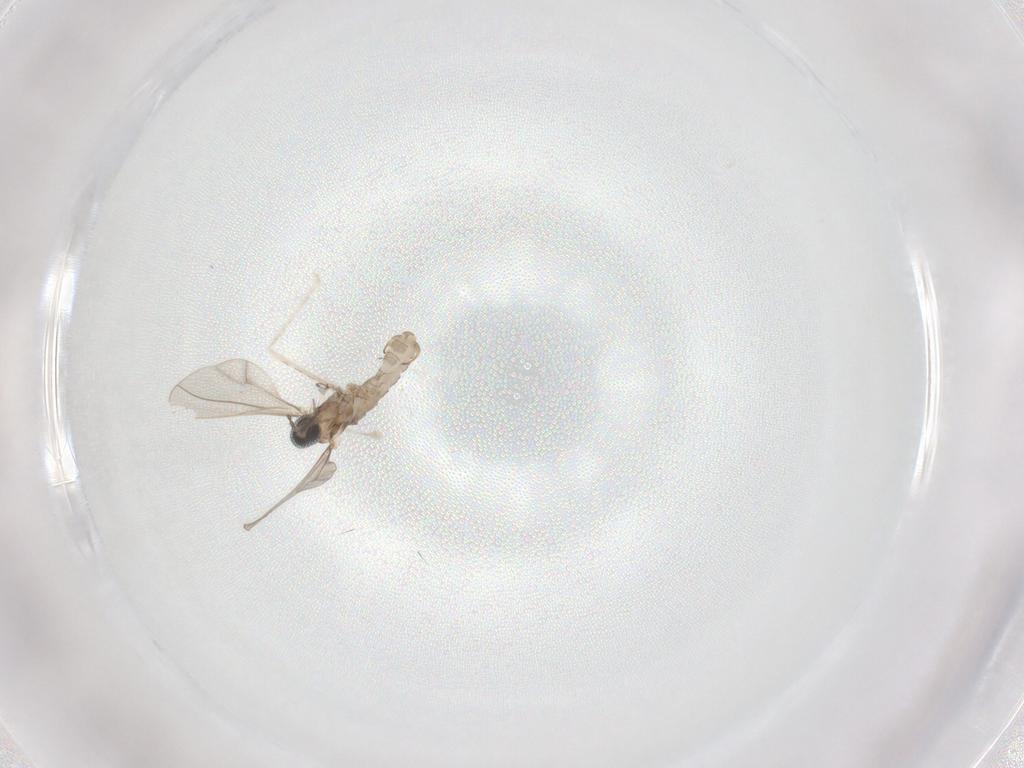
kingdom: Animalia
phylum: Arthropoda
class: Insecta
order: Diptera
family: Cecidomyiidae
